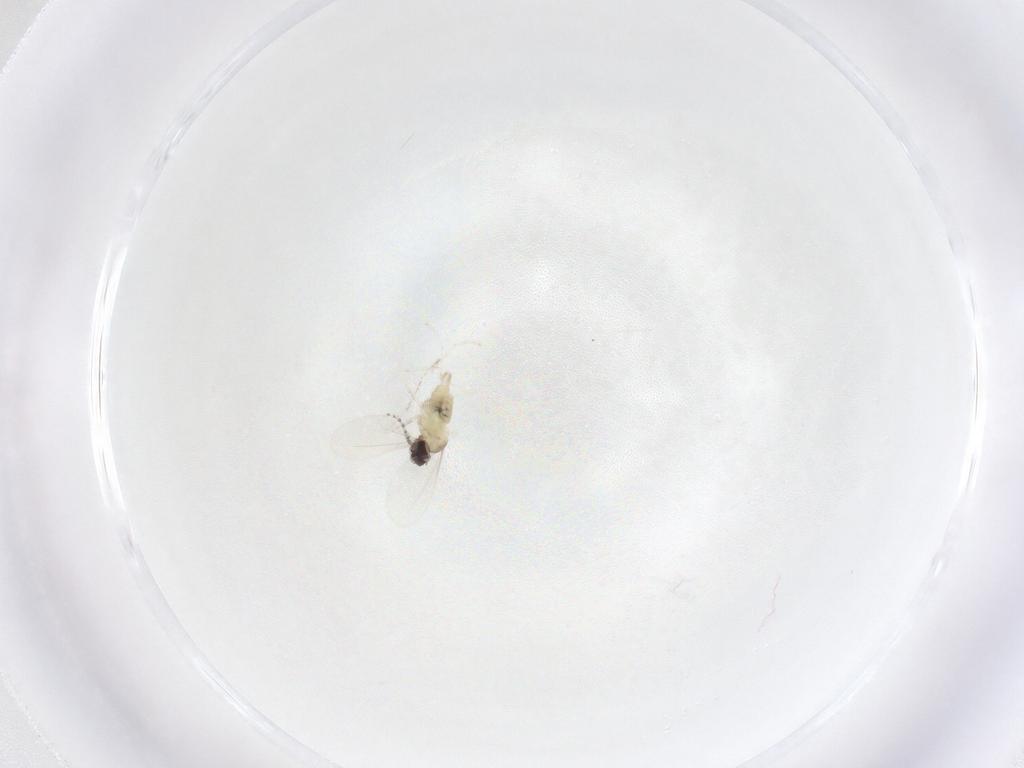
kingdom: Animalia
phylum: Arthropoda
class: Insecta
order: Diptera
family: Cecidomyiidae
